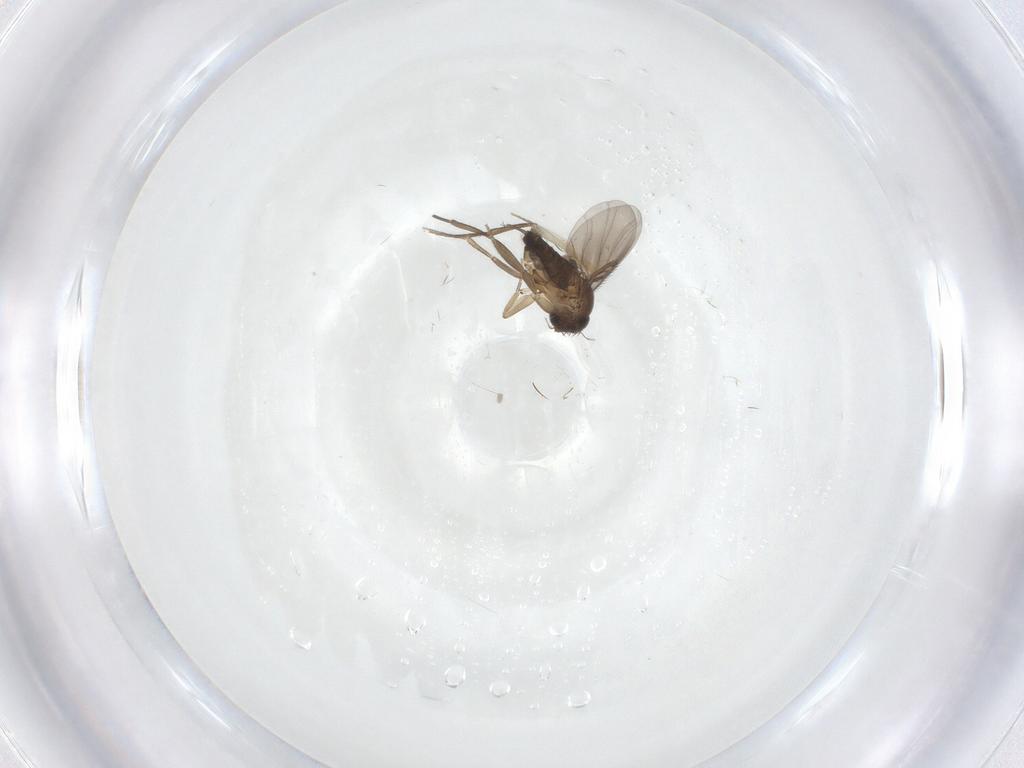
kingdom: Animalia
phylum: Arthropoda
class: Insecta
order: Diptera
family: Phoridae
